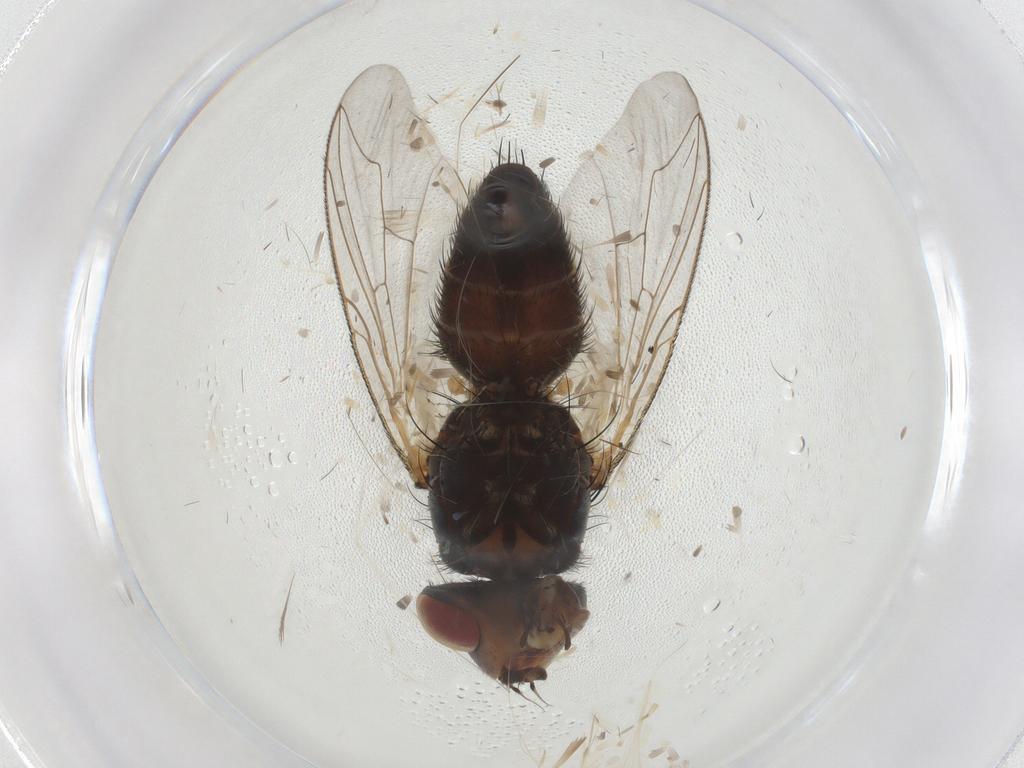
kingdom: Animalia
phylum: Arthropoda
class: Insecta
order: Diptera
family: Sarcophagidae
